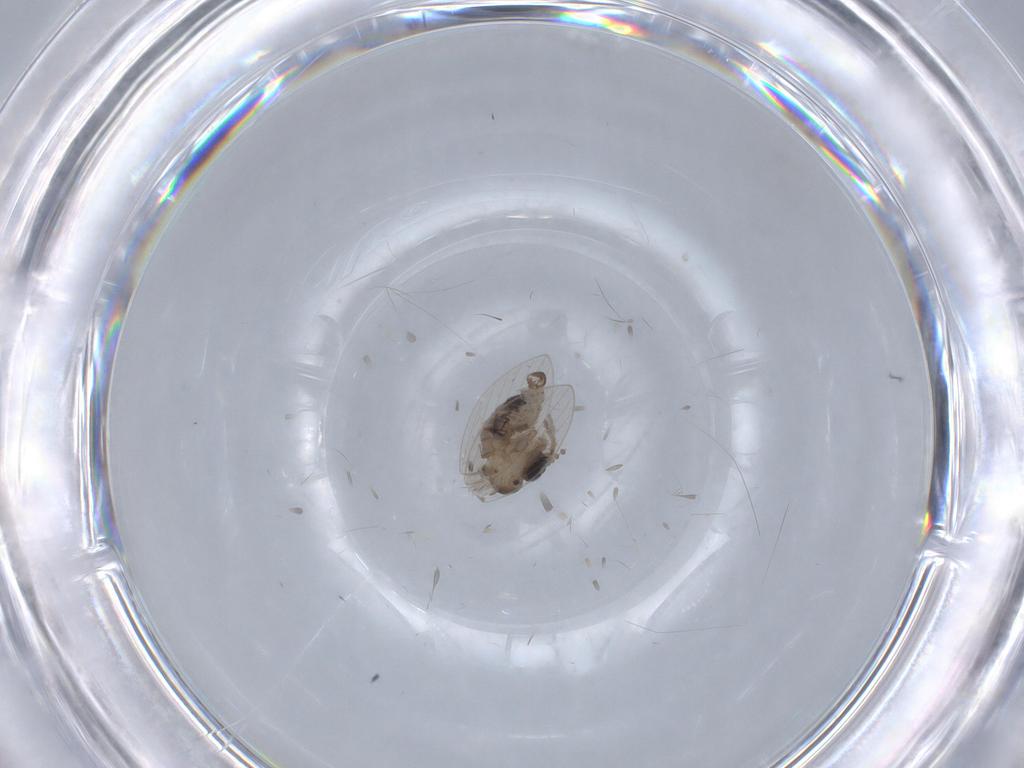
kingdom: Animalia
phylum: Arthropoda
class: Insecta
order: Diptera
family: Psychodidae
